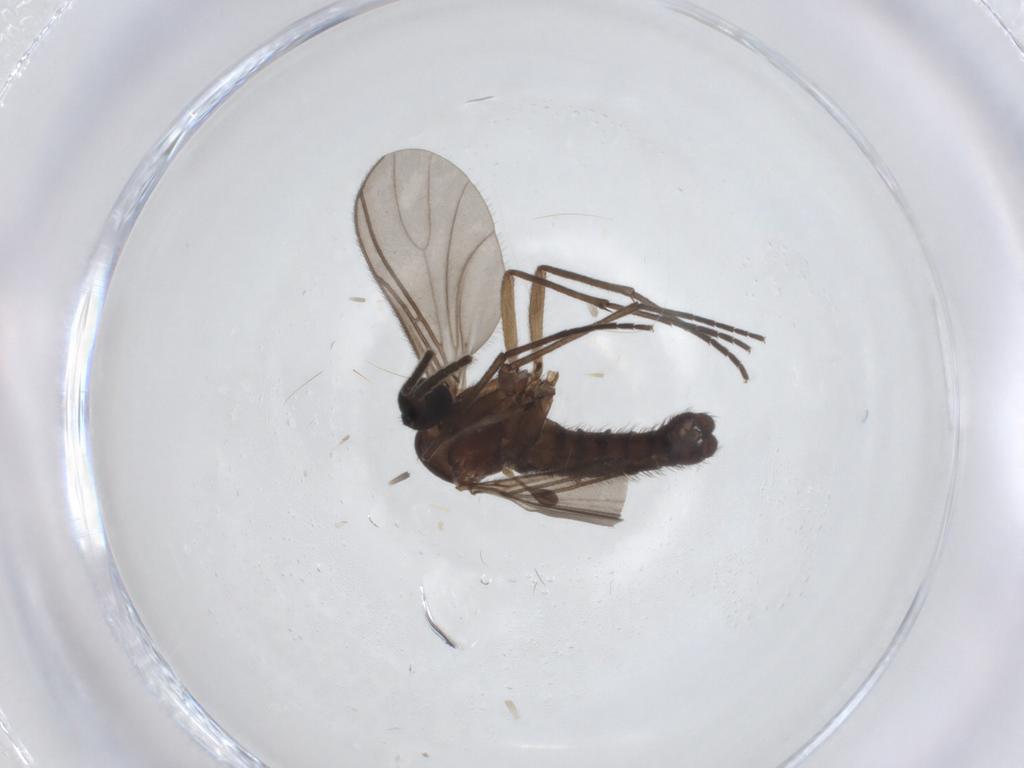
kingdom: Animalia
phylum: Arthropoda
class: Insecta
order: Diptera
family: Sciaridae
